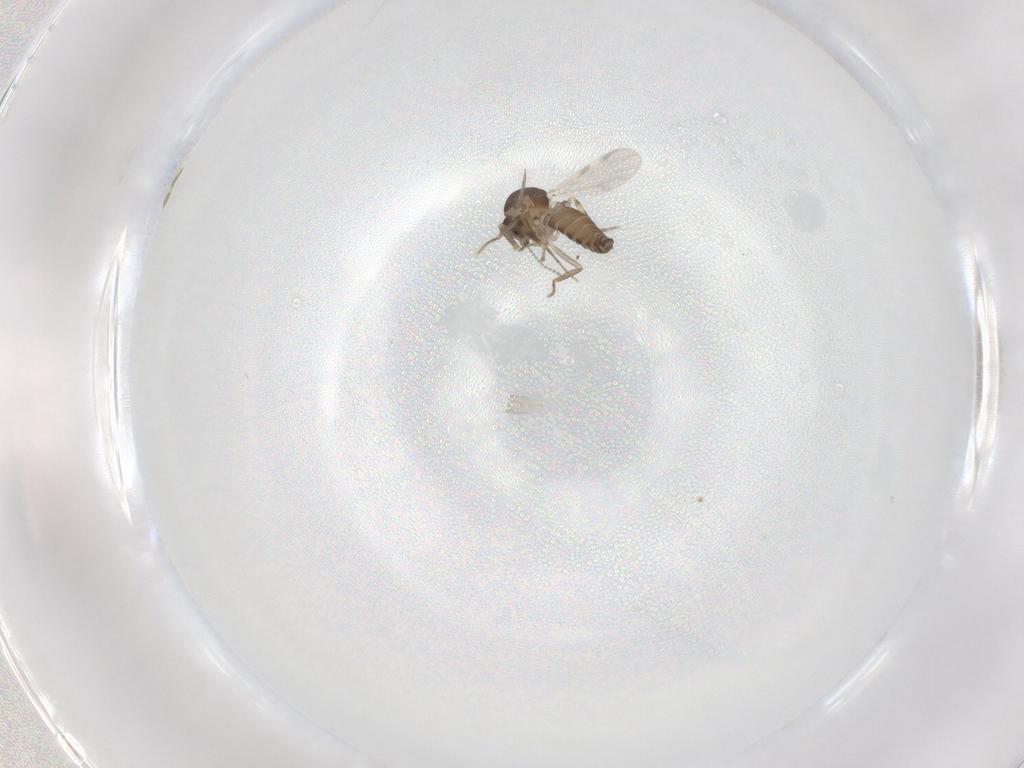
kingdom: Animalia
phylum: Arthropoda
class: Insecta
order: Diptera
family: Ceratopogonidae
